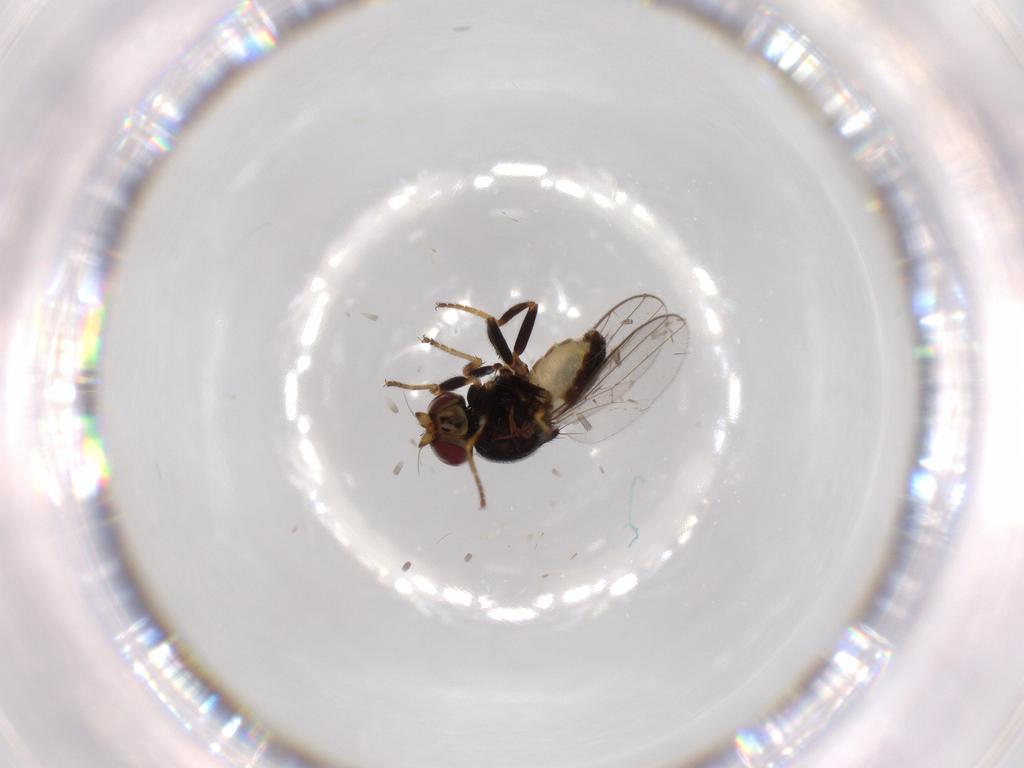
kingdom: Animalia
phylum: Arthropoda
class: Insecta
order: Diptera
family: Chloropidae
